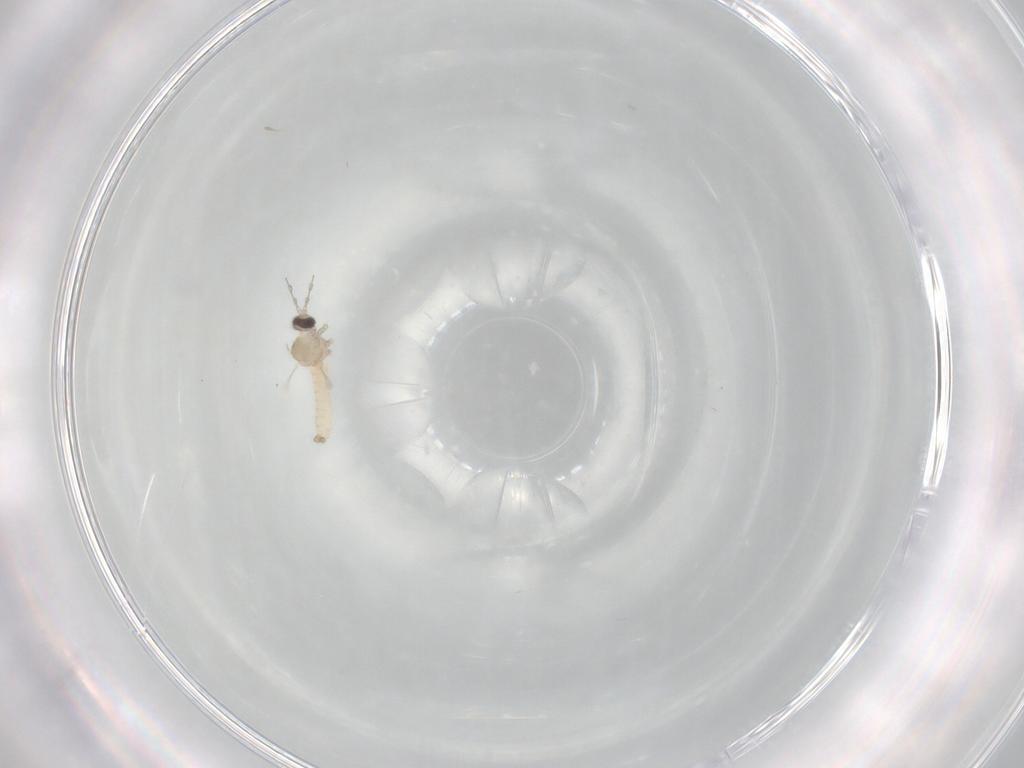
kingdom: Animalia
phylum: Arthropoda
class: Insecta
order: Diptera
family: Cecidomyiidae
